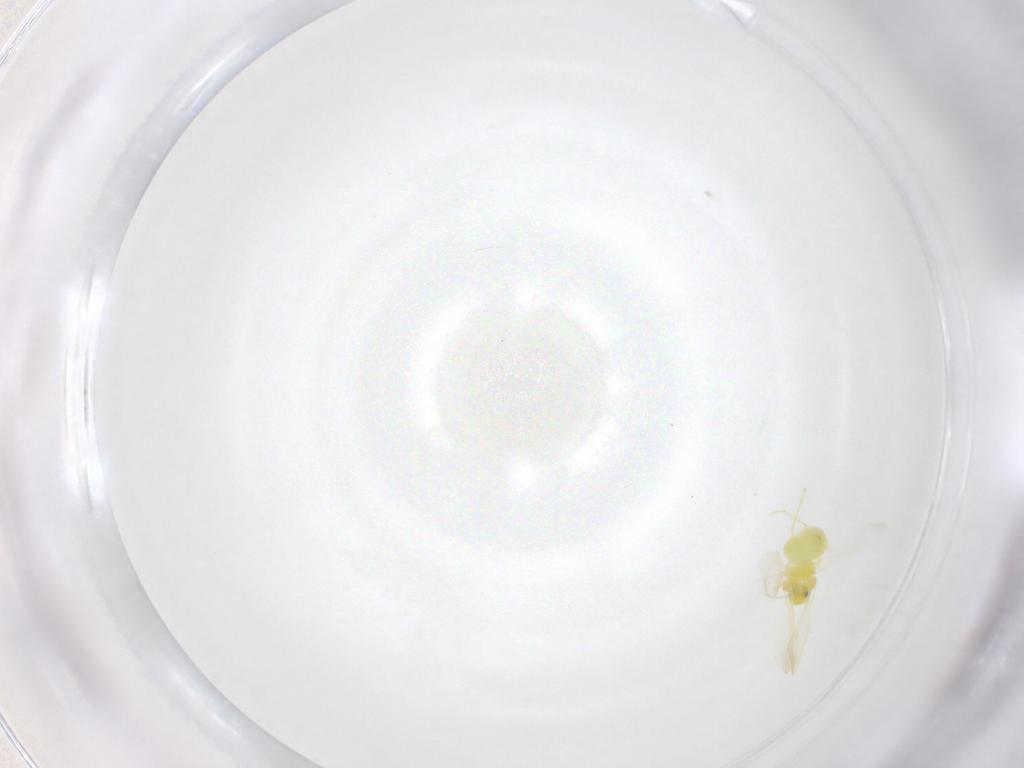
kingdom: Animalia
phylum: Arthropoda
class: Insecta
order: Hemiptera
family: Aleyrodidae
